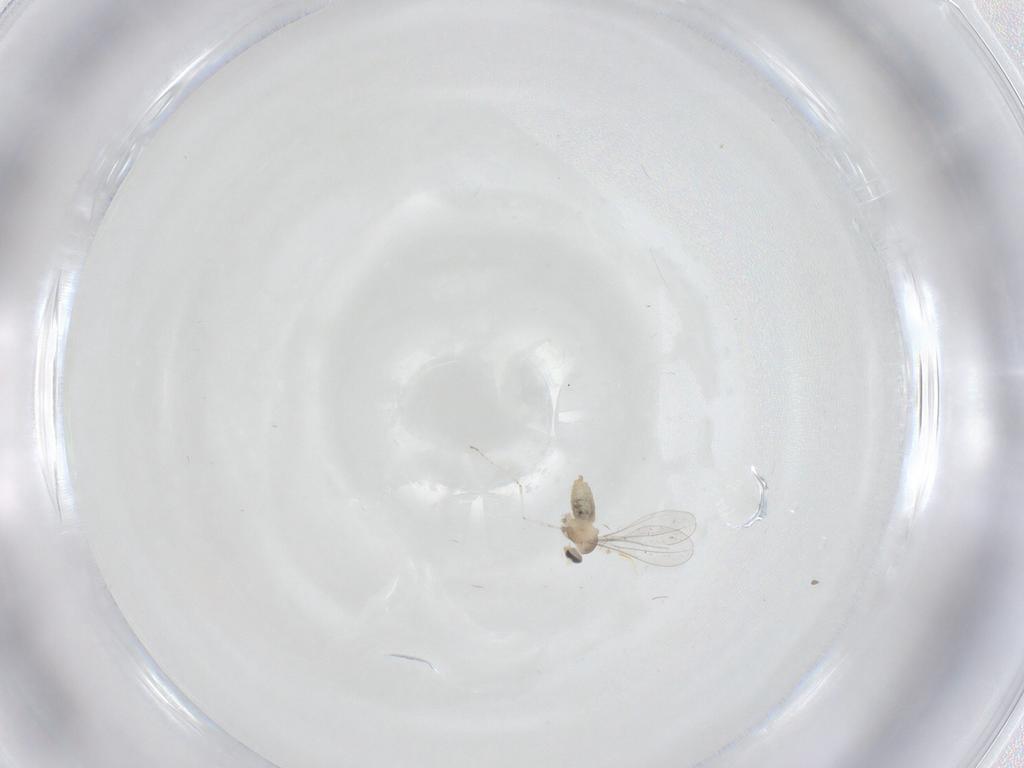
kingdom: Animalia
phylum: Arthropoda
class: Insecta
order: Diptera
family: Cecidomyiidae
